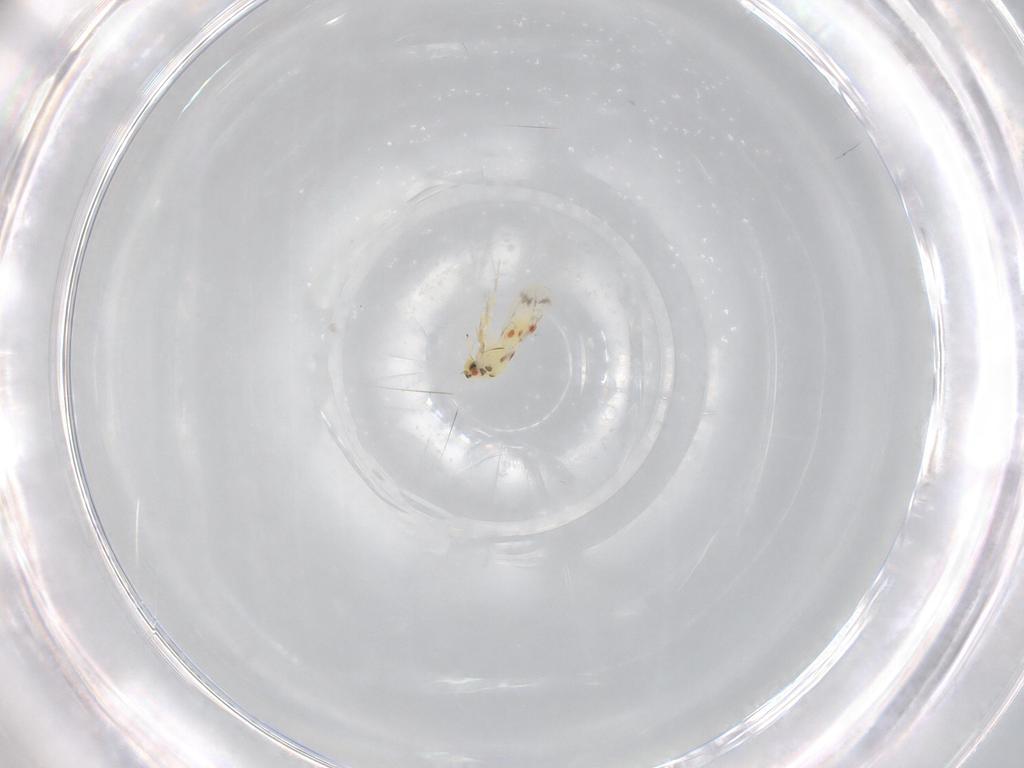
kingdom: Animalia
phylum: Arthropoda
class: Insecta
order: Hemiptera
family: Aleyrodidae
